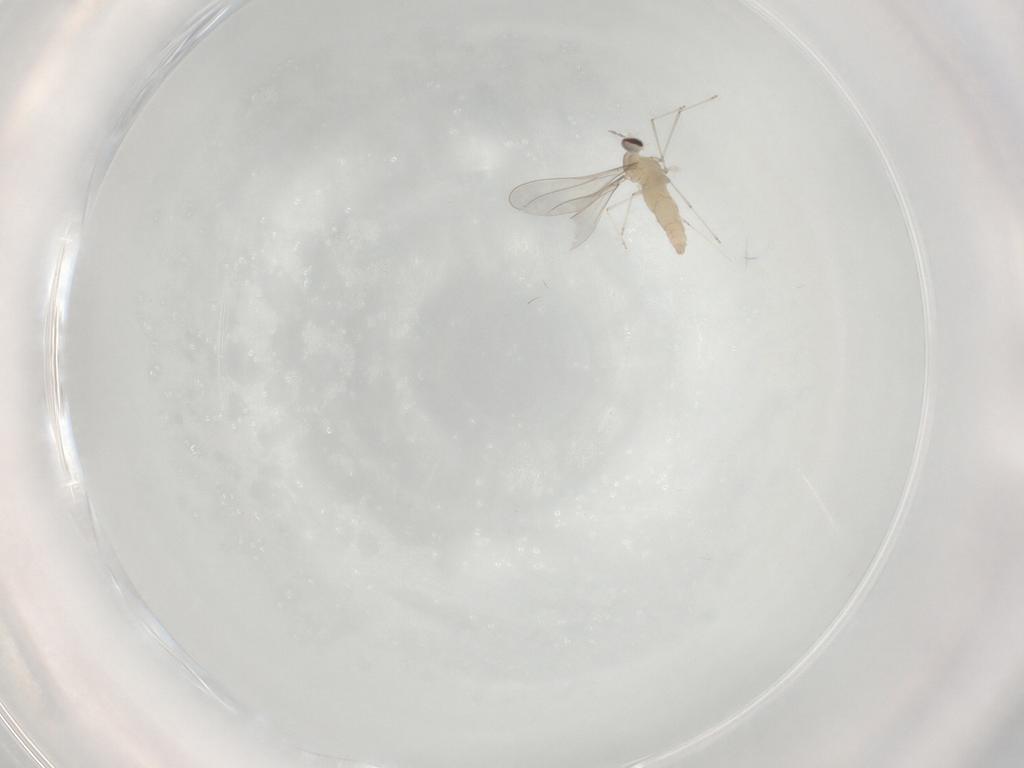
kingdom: Animalia
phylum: Arthropoda
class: Insecta
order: Diptera
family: Cecidomyiidae
